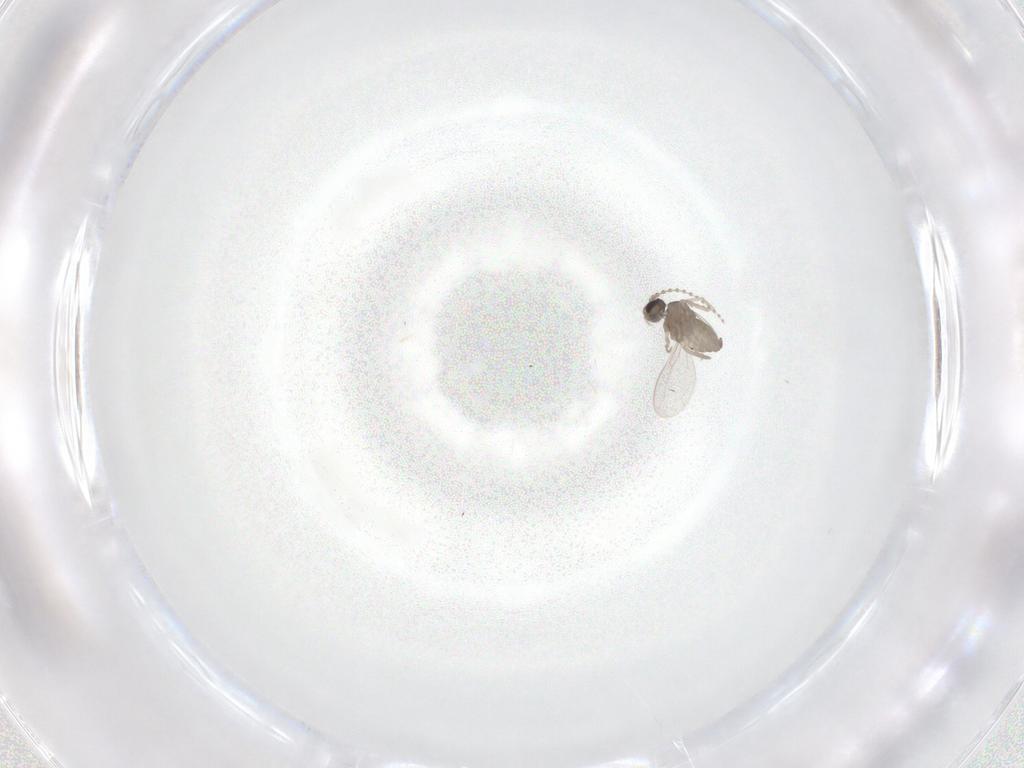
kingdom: Animalia
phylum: Arthropoda
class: Insecta
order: Diptera
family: Cecidomyiidae
